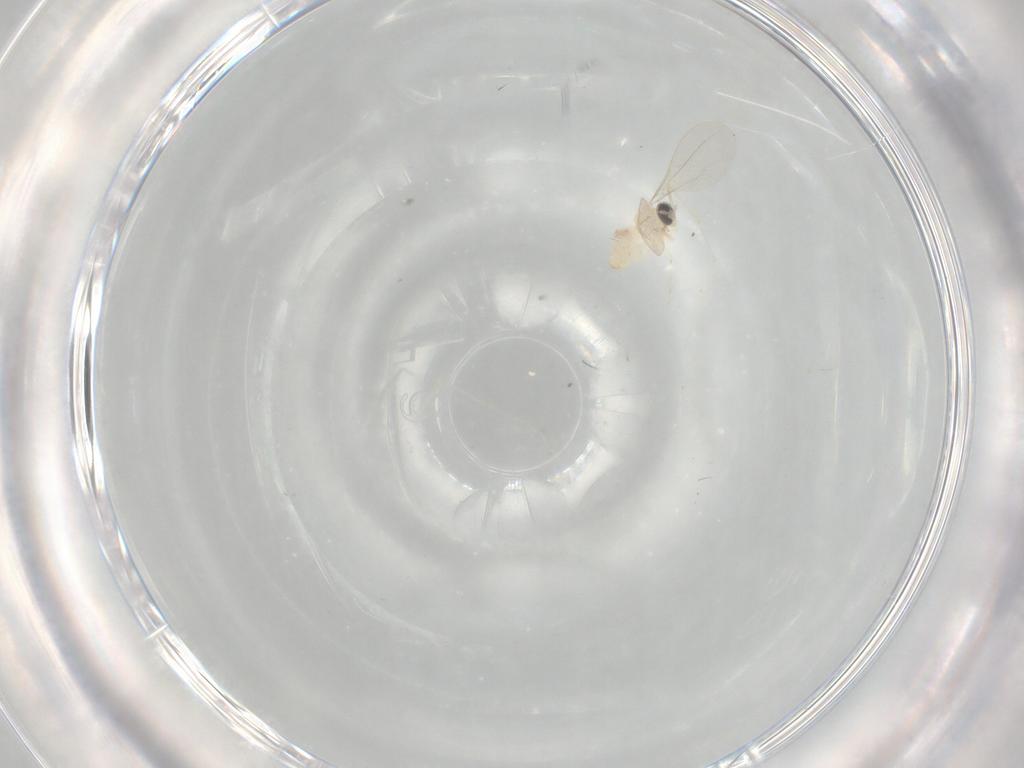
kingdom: Animalia
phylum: Arthropoda
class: Insecta
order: Diptera
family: Cecidomyiidae
